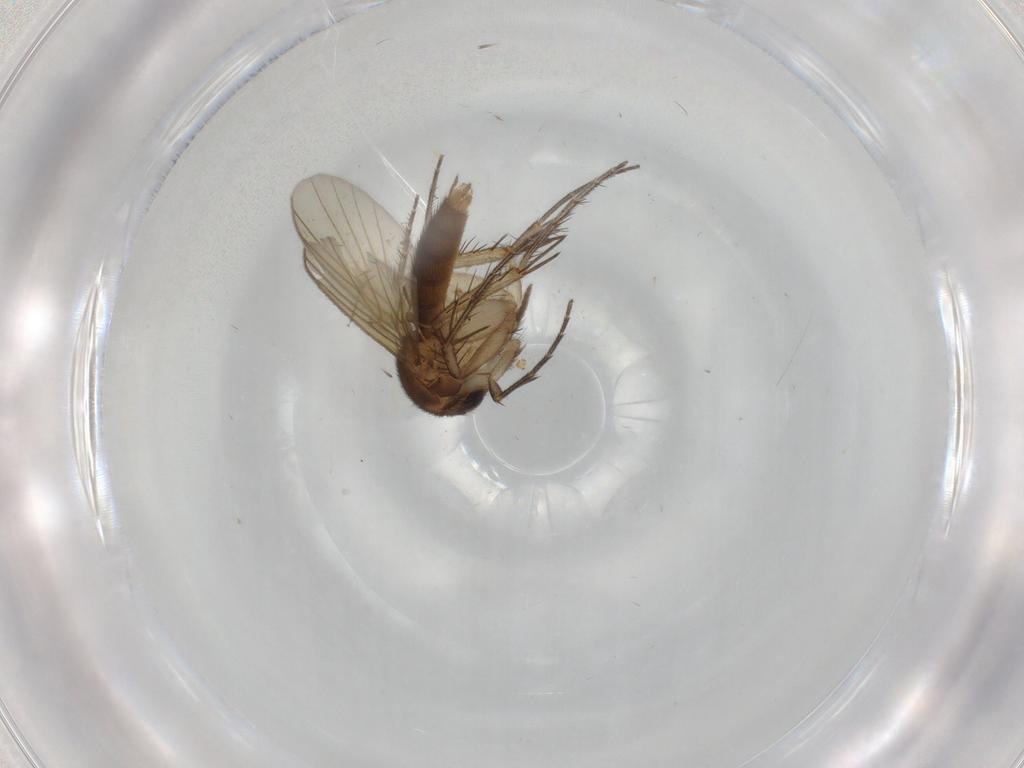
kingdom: Animalia
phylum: Arthropoda
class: Insecta
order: Diptera
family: Mycetophilidae
